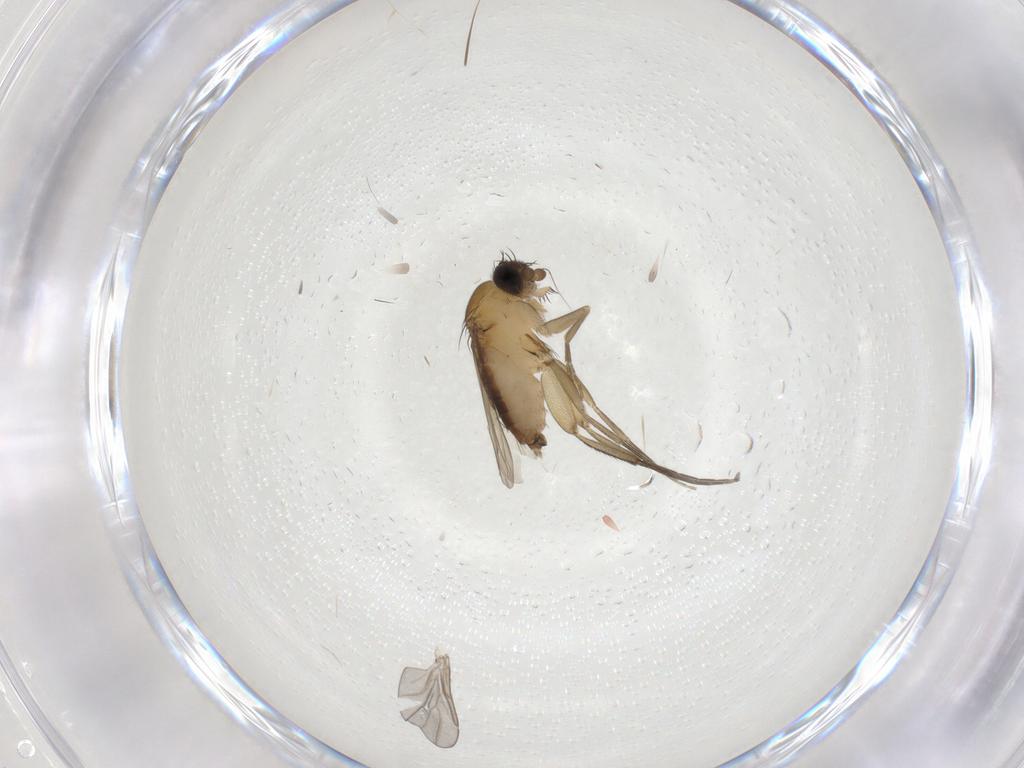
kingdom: Animalia
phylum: Arthropoda
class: Insecta
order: Diptera
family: Phoridae
